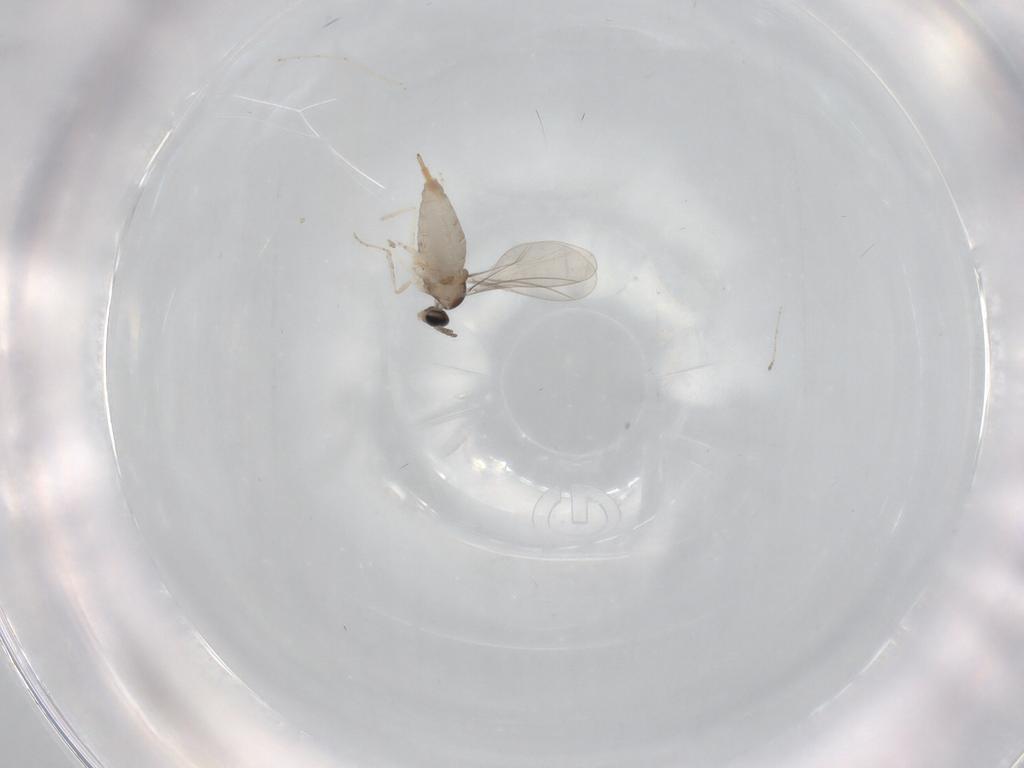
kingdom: Animalia
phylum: Arthropoda
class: Insecta
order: Diptera
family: Cecidomyiidae
